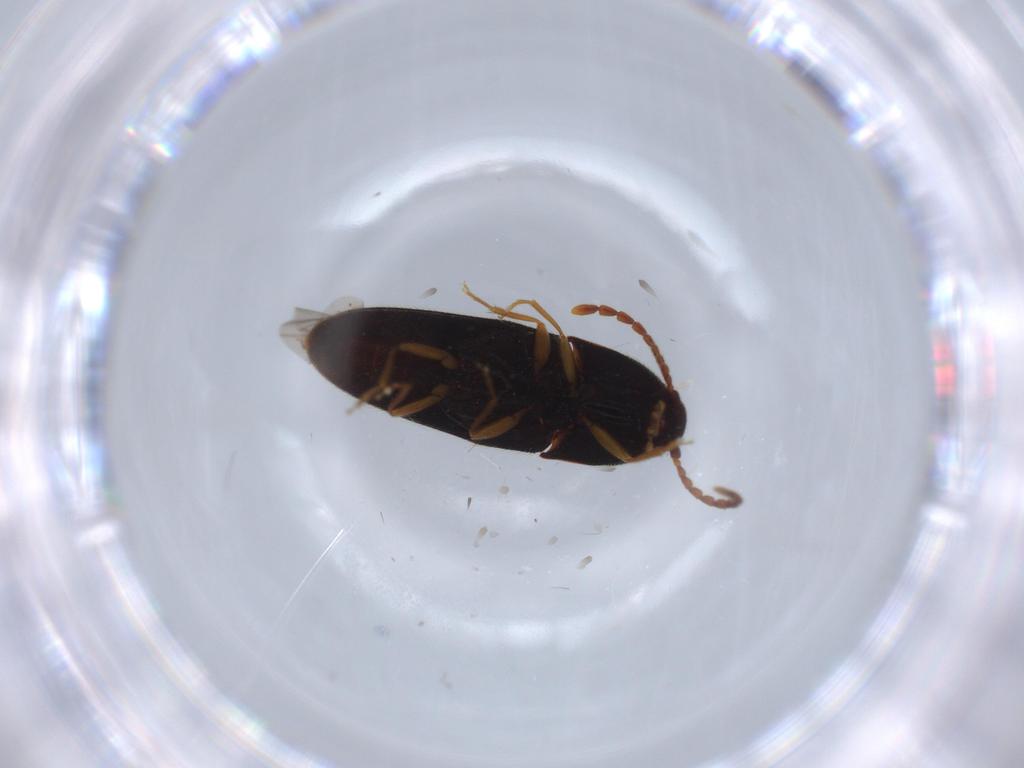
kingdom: Animalia
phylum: Arthropoda
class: Insecta
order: Coleoptera
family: Elateridae
